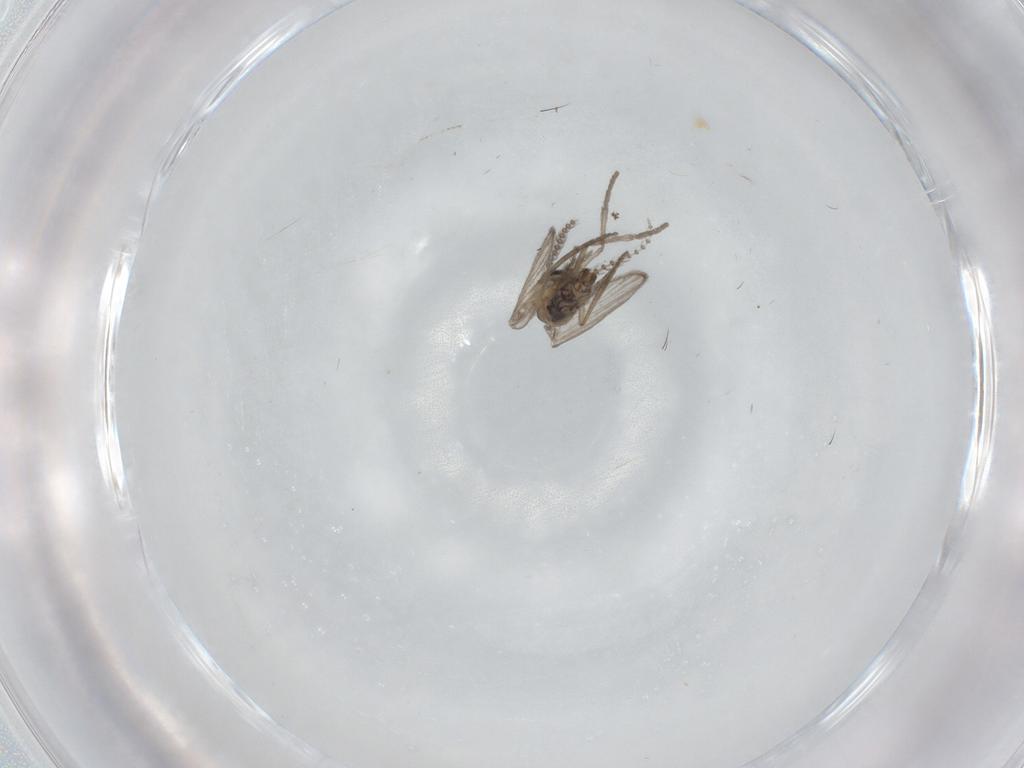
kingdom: Animalia
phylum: Arthropoda
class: Insecta
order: Diptera
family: Psychodidae
